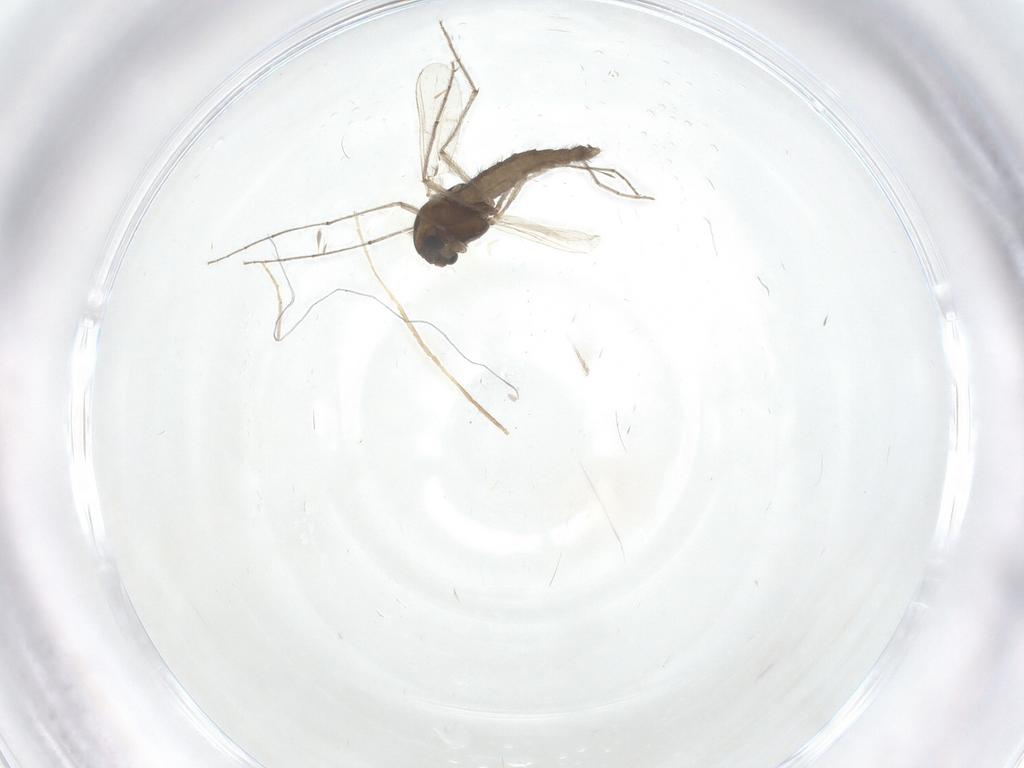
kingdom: Animalia
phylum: Arthropoda
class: Insecta
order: Diptera
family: Chironomidae
